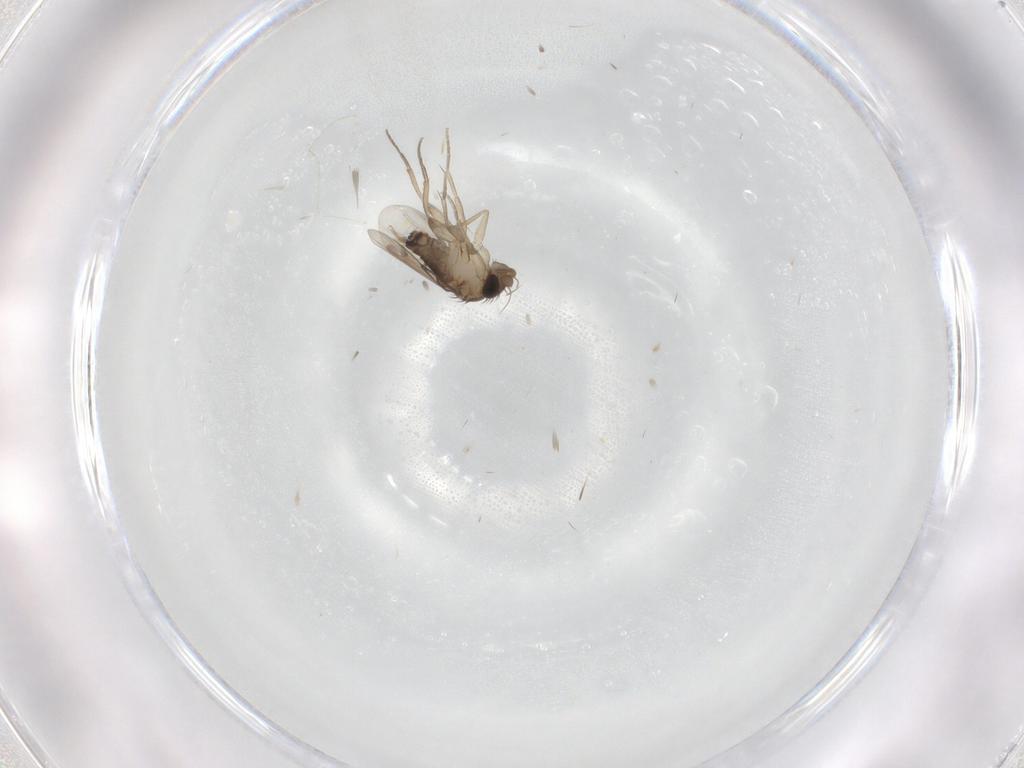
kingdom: Animalia
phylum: Arthropoda
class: Insecta
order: Diptera
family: Phoridae
